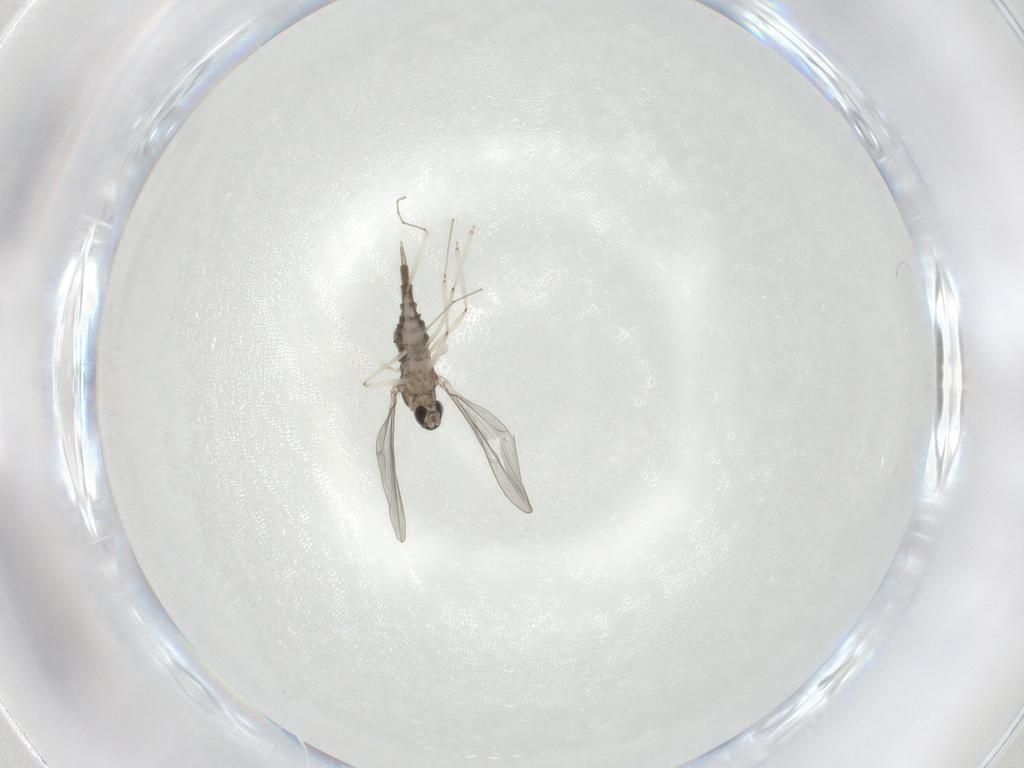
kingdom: Animalia
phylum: Arthropoda
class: Insecta
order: Diptera
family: Cecidomyiidae
